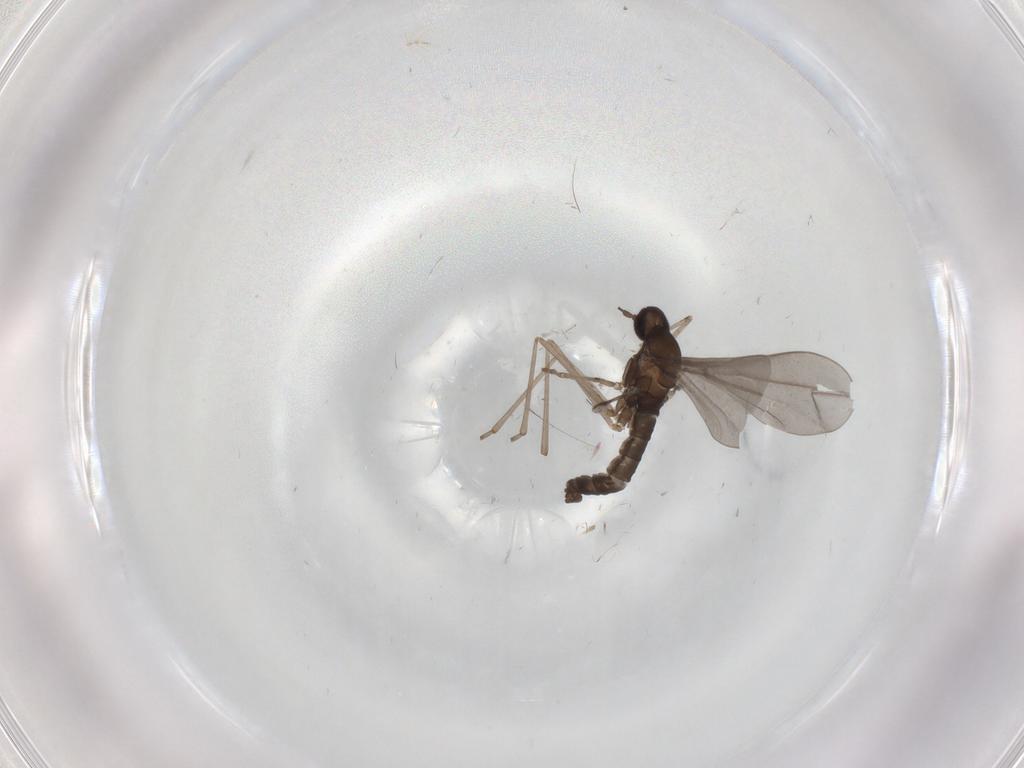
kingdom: Animalia
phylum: Arthropoda
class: Insecta
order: Diptera
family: Cecidomyiidae
